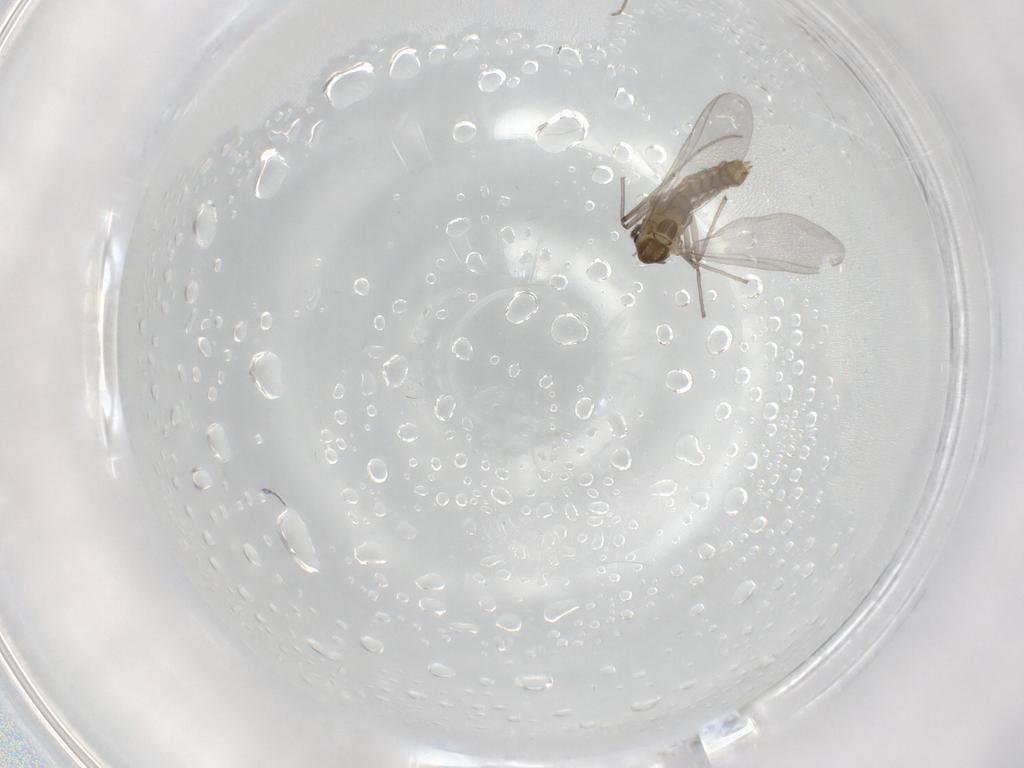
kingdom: Animalia
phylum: Arthropoda
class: Insecta
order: Diptera
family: Chironomidae
